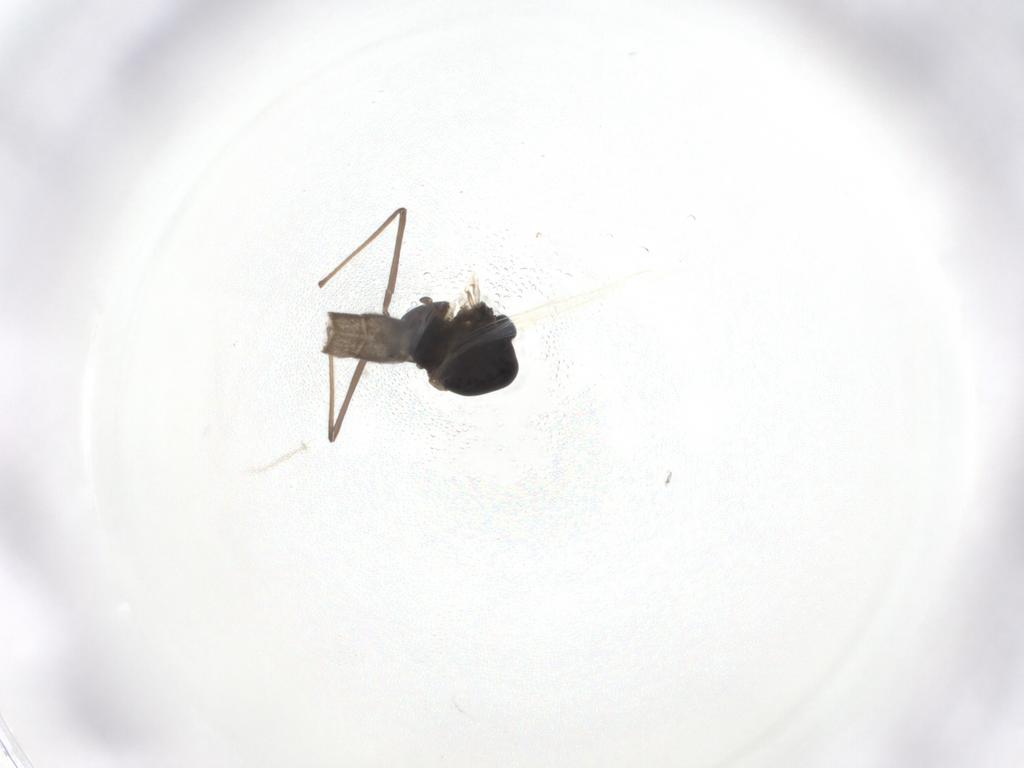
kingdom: Animalia
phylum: Arthropoda
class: Insecta
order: Diptera
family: Chironomidae
